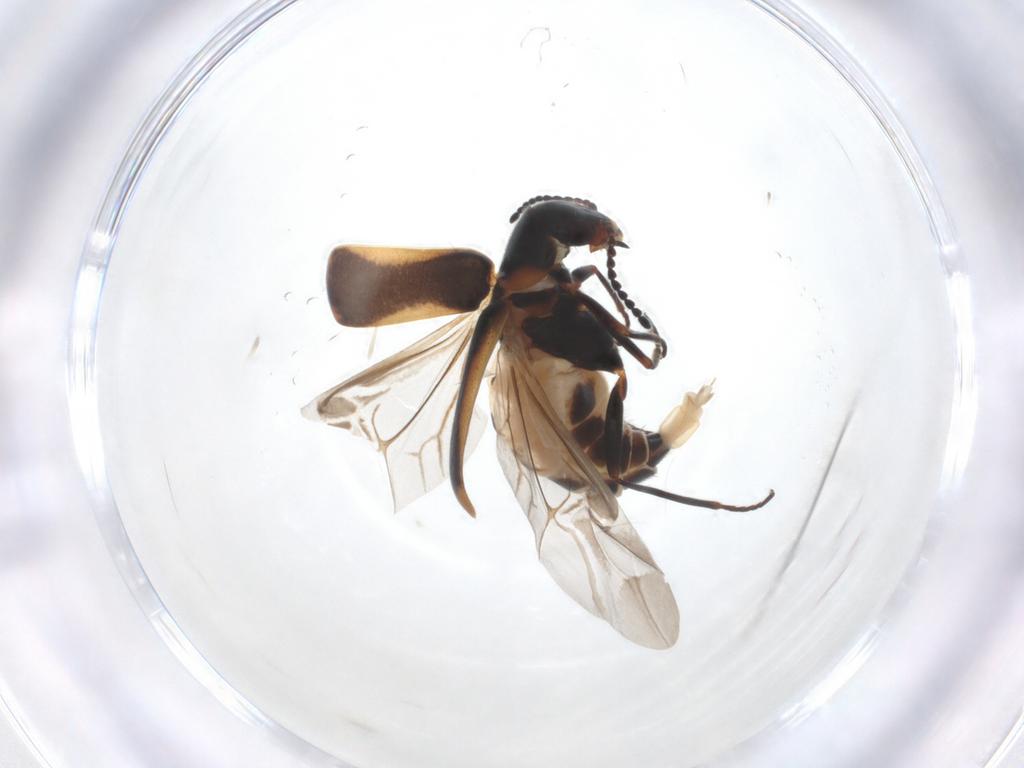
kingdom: Animalia
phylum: Arthropoda
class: Insecta
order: Coleoptera
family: Melyridae
